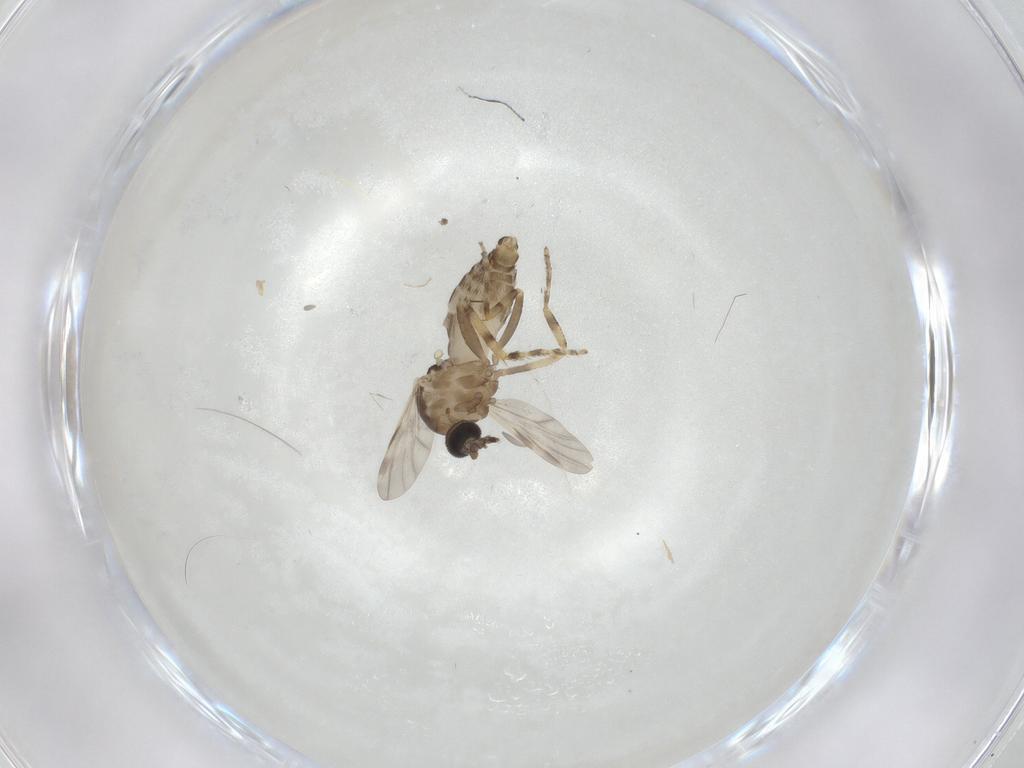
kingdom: Animalia
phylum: Arthropoda
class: Insecta
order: Diptera
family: Ceratopogonidae
